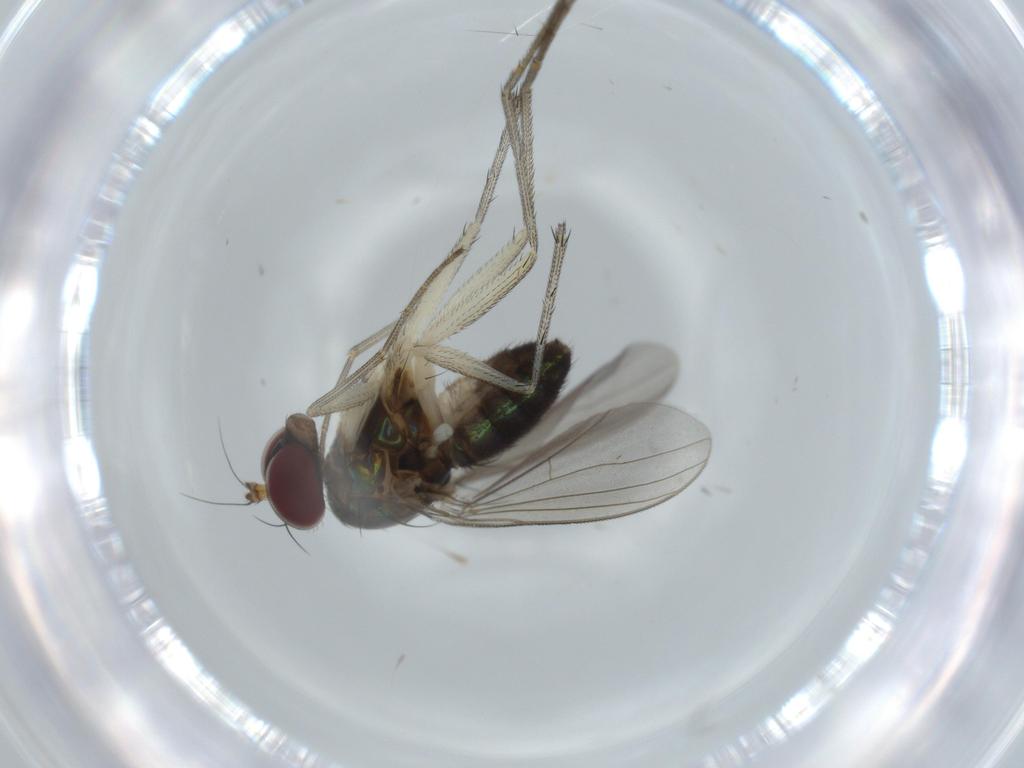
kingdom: Animalia
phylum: Arthropoda
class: Insecta
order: Diptera
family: Dolichopodidae
